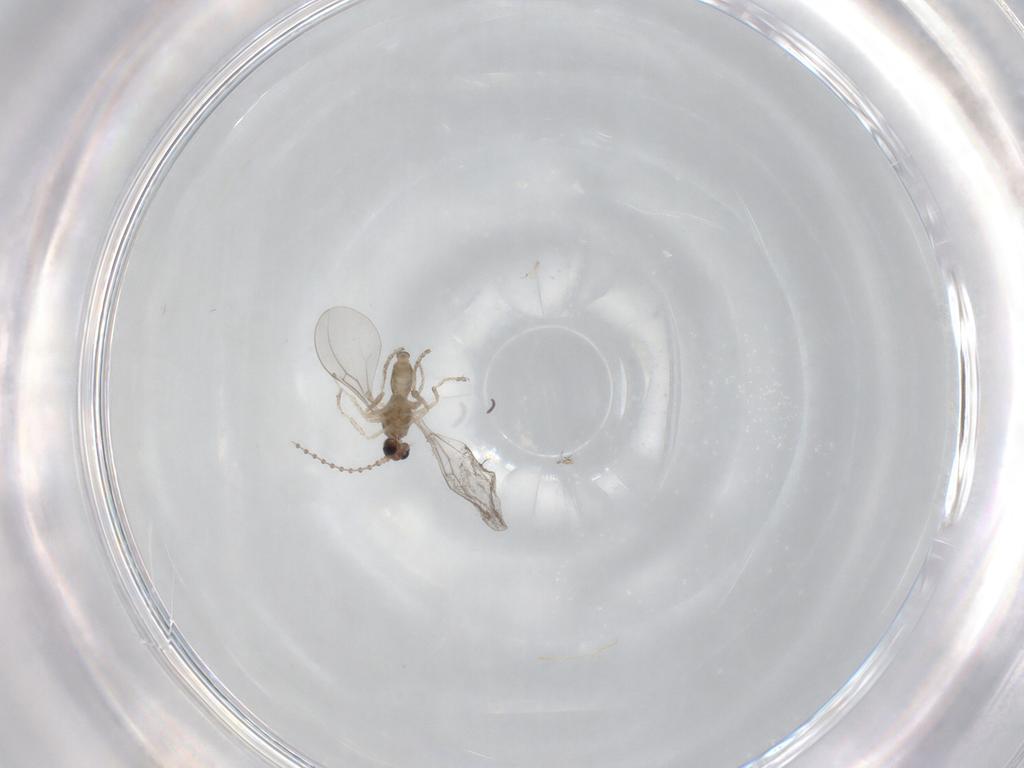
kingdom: Animalia
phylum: Arthropoda
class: Insecta
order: Diptera
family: Cecidomyiidae
